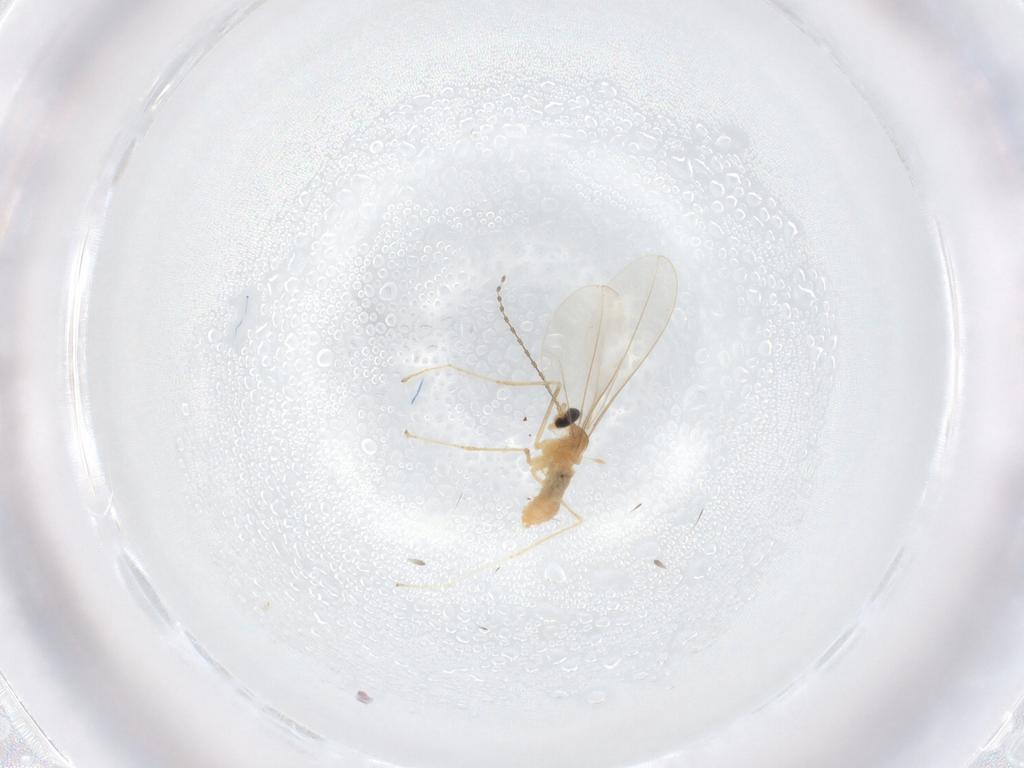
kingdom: Animalia
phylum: Arthropoda
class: Insecta
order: Diptera
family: Cecidomyiidae
